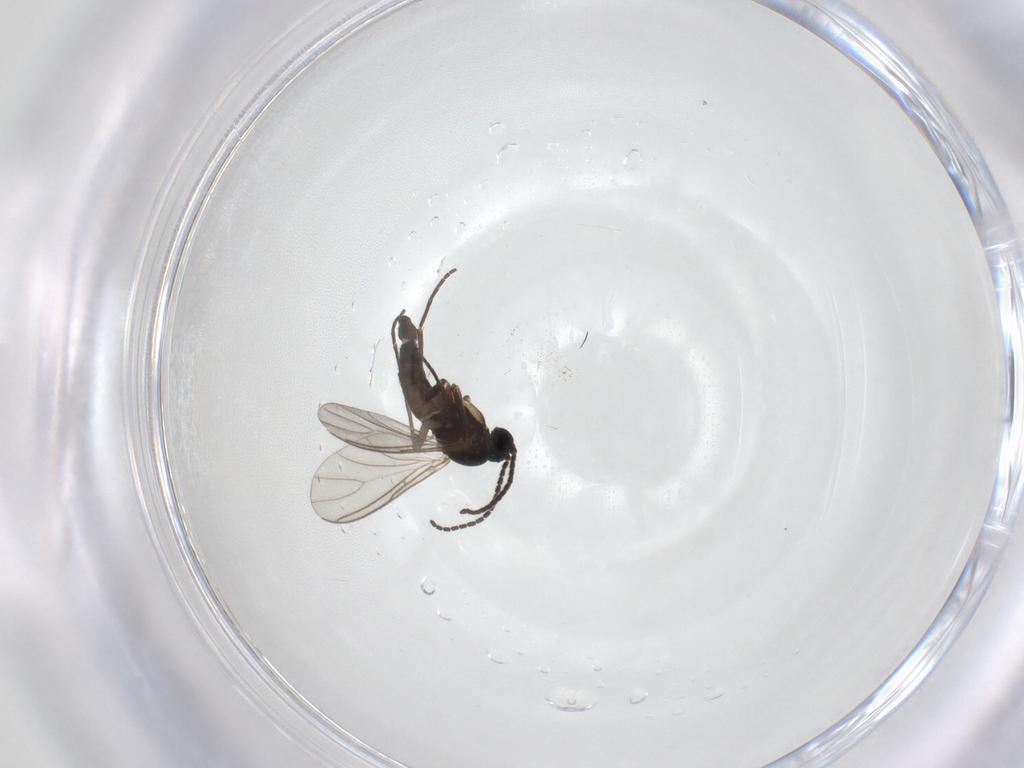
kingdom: Animalia
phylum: Arthropoda
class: Insecta
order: Diptera
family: Sciaridae
